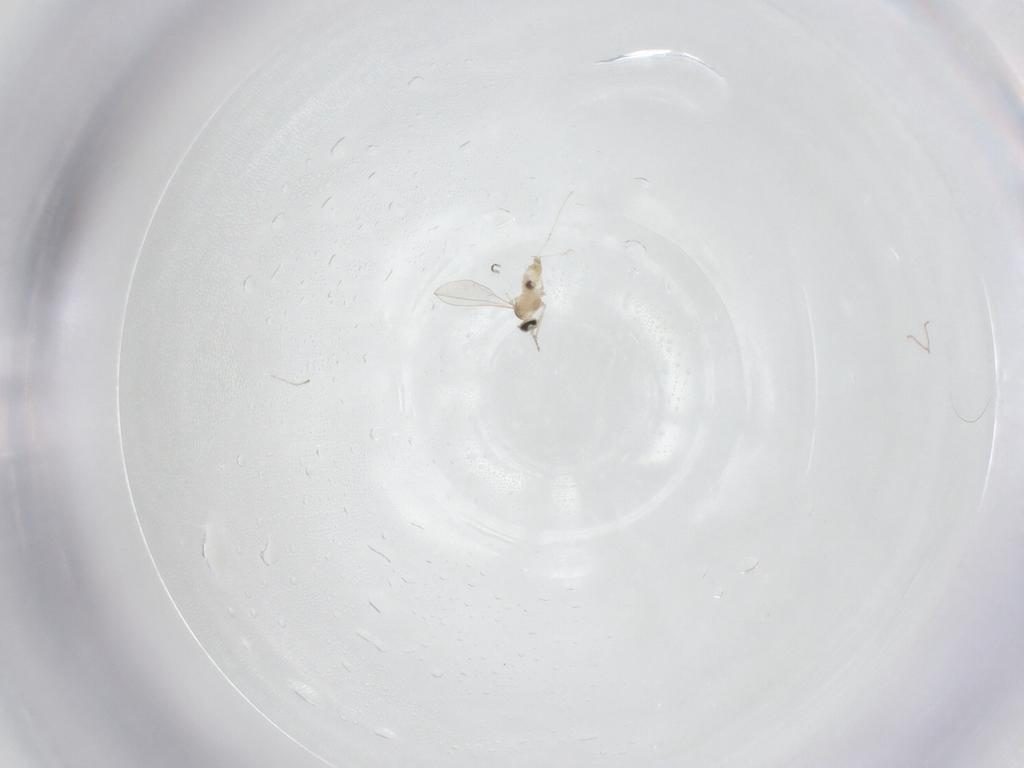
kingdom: Animalia
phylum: Arthropoda
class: Insecta
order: Diptera
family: Cecidomyiidae
